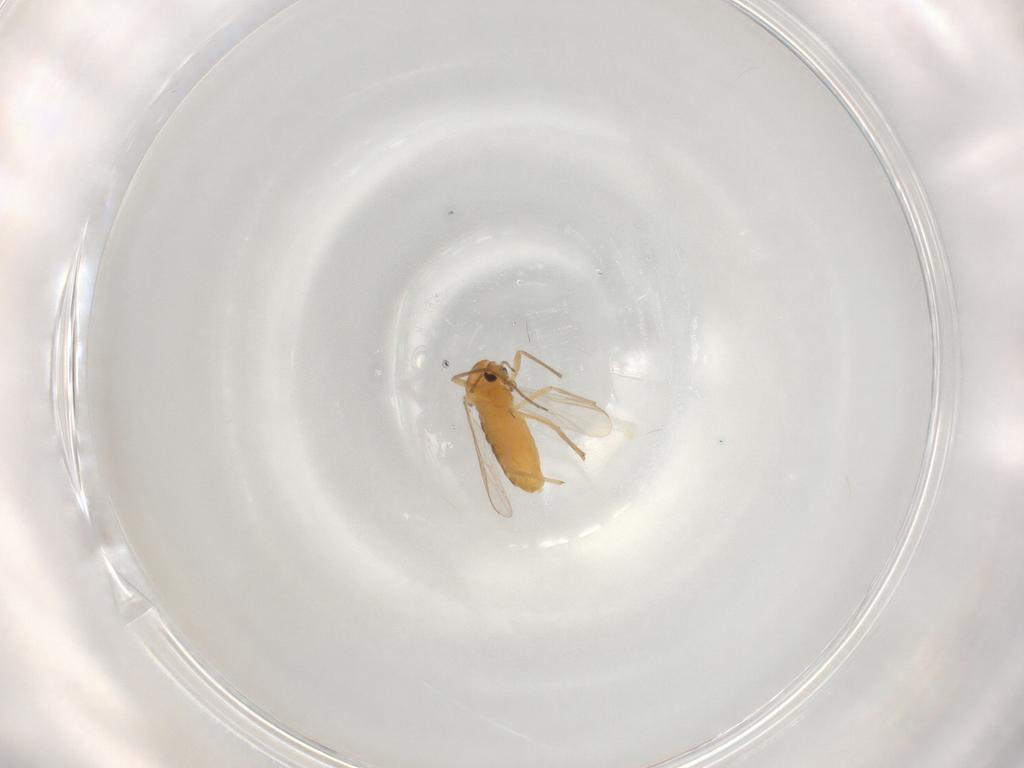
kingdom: Animalia
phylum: Arthropoda
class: Insecta
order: Diptera
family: Cecidomyiidae
